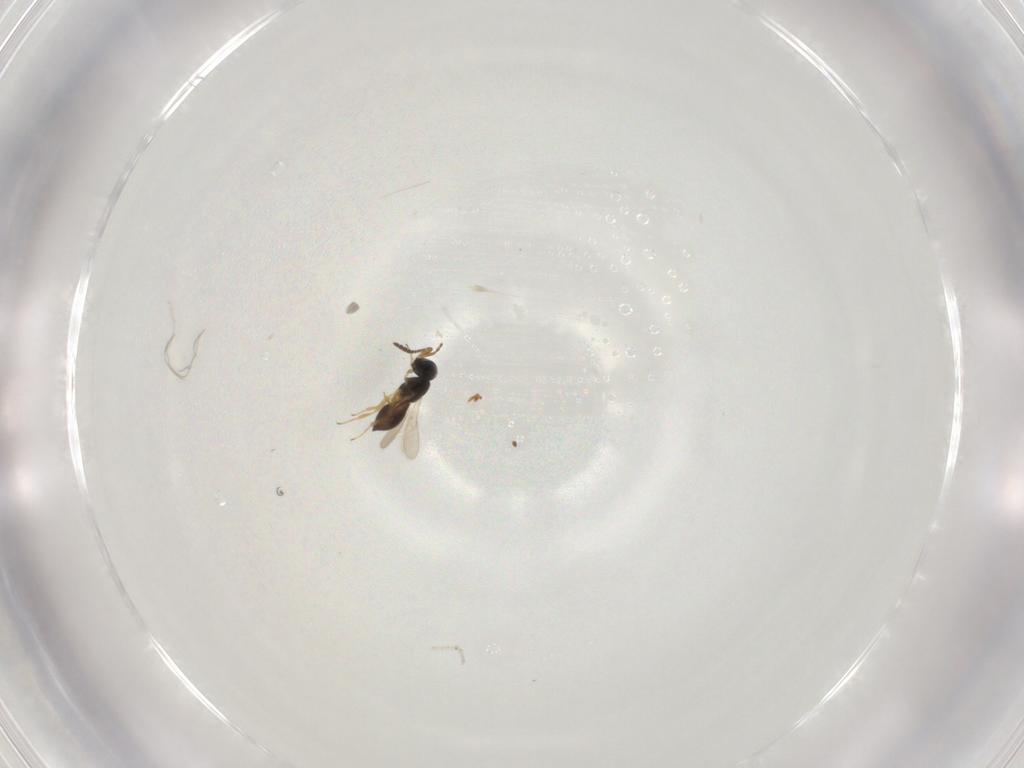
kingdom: Animalia
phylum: Arthropoda
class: Insecta
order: Hymenoptera
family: Scelionidae
